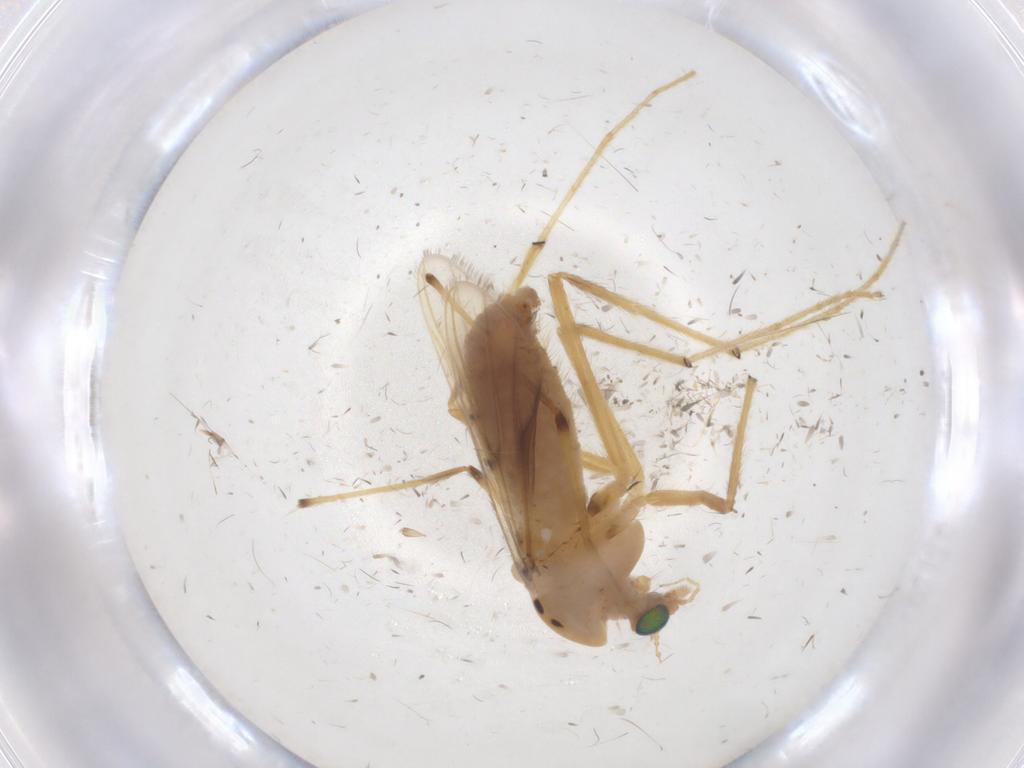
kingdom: Animalia
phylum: Arthropoda
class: Insecta
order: Diptera
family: Chironomidae
